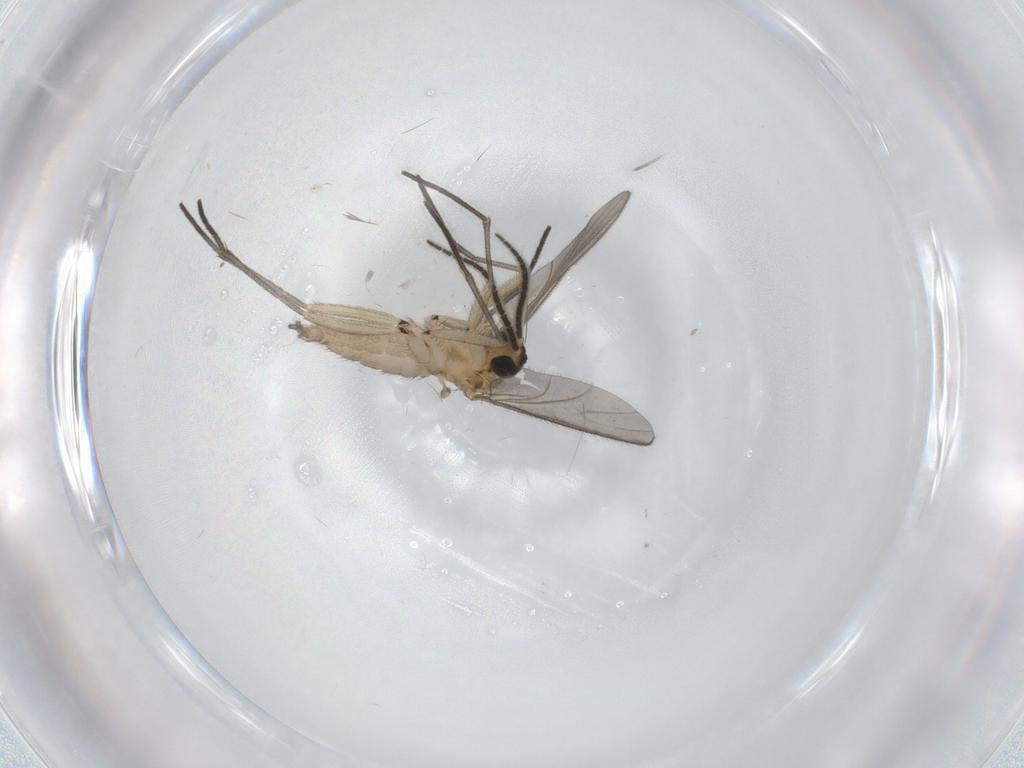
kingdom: Animalia
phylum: Arthropoda
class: Insecta
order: Diptera
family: Sciaridae
